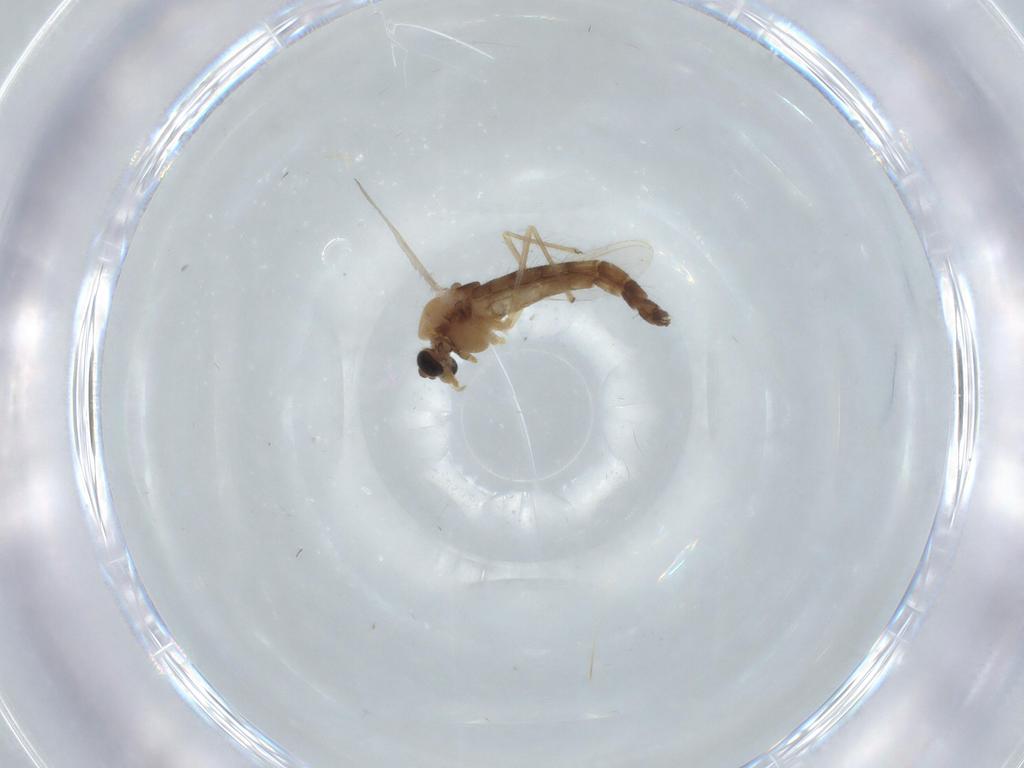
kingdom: Animalia
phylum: Arthropoda
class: Insecta
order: Diptera
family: Chironomidae
